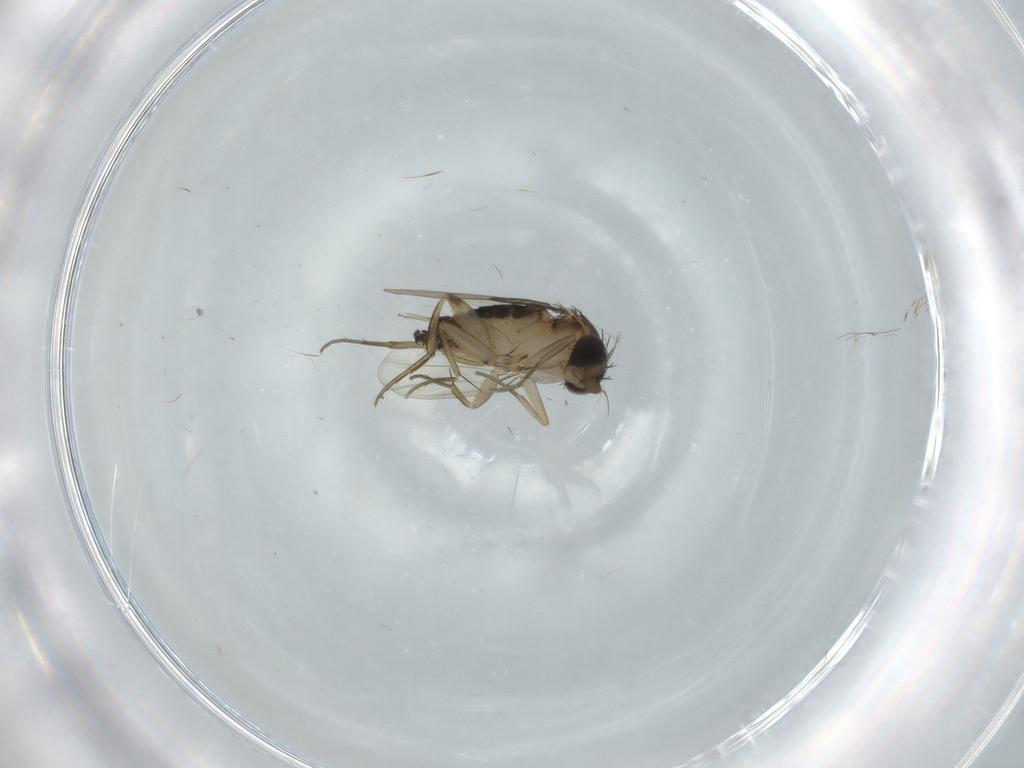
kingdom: Animalia
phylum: Arthropoda
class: Insecta
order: Diptera
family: Phoridae
